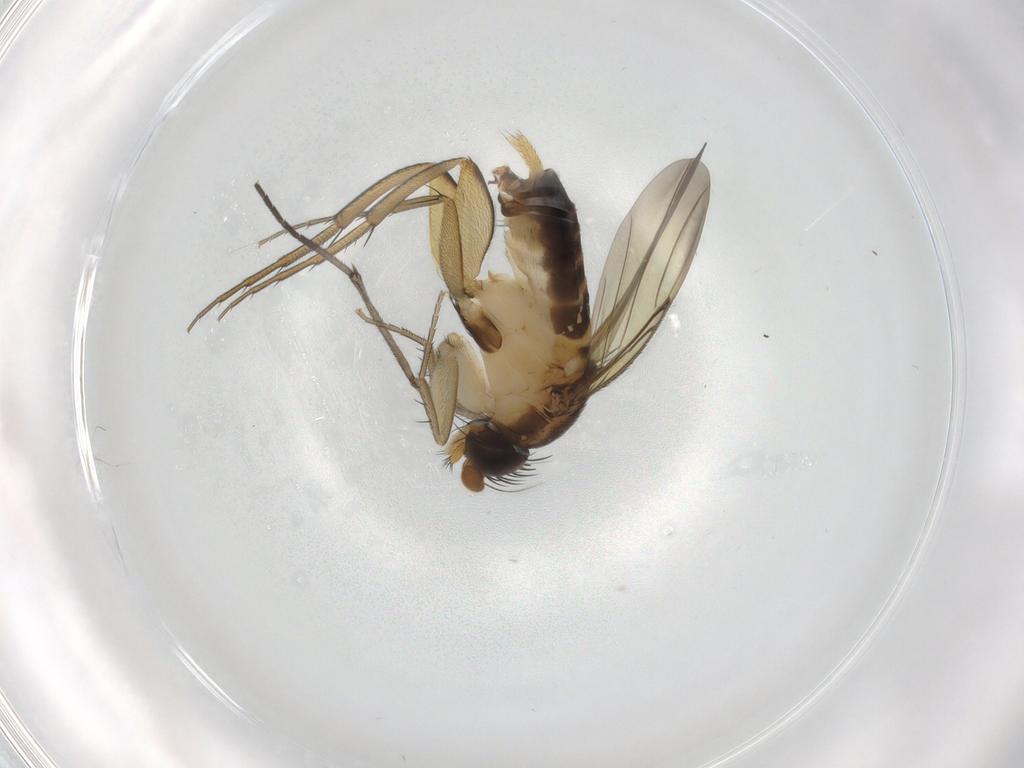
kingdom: Animalia
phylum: Arthropoda
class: Insecta
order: Diptera
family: Phoridae
